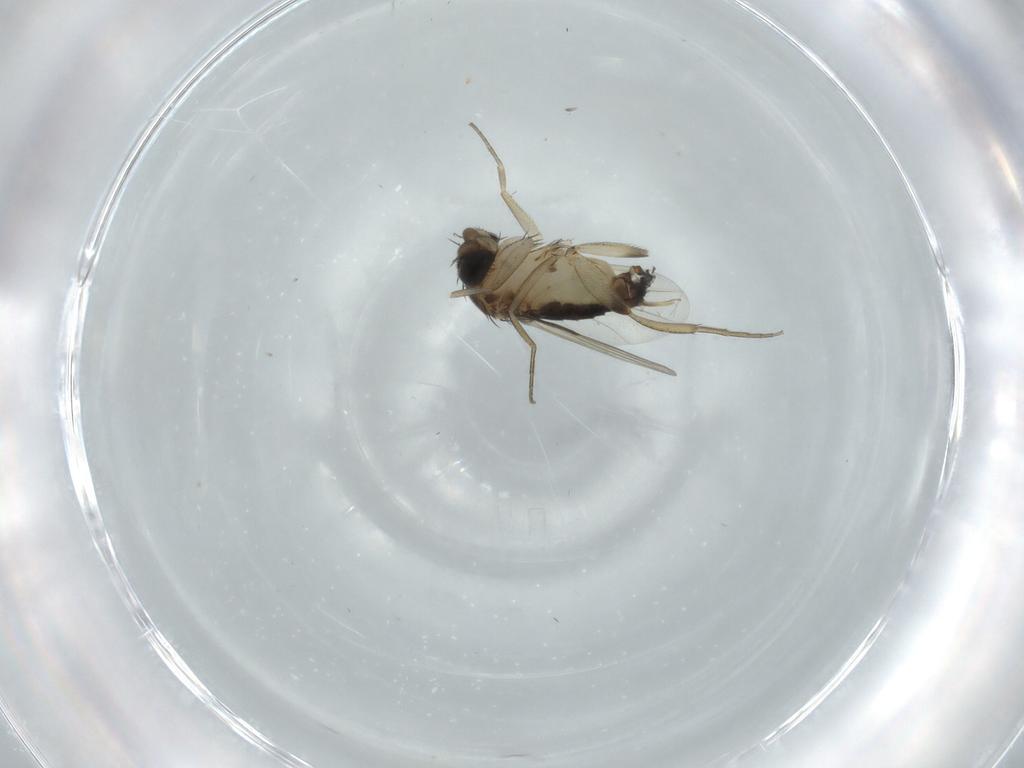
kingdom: Animalia
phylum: Arthropoda
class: Insecta
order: Diptera
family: Phoridae
